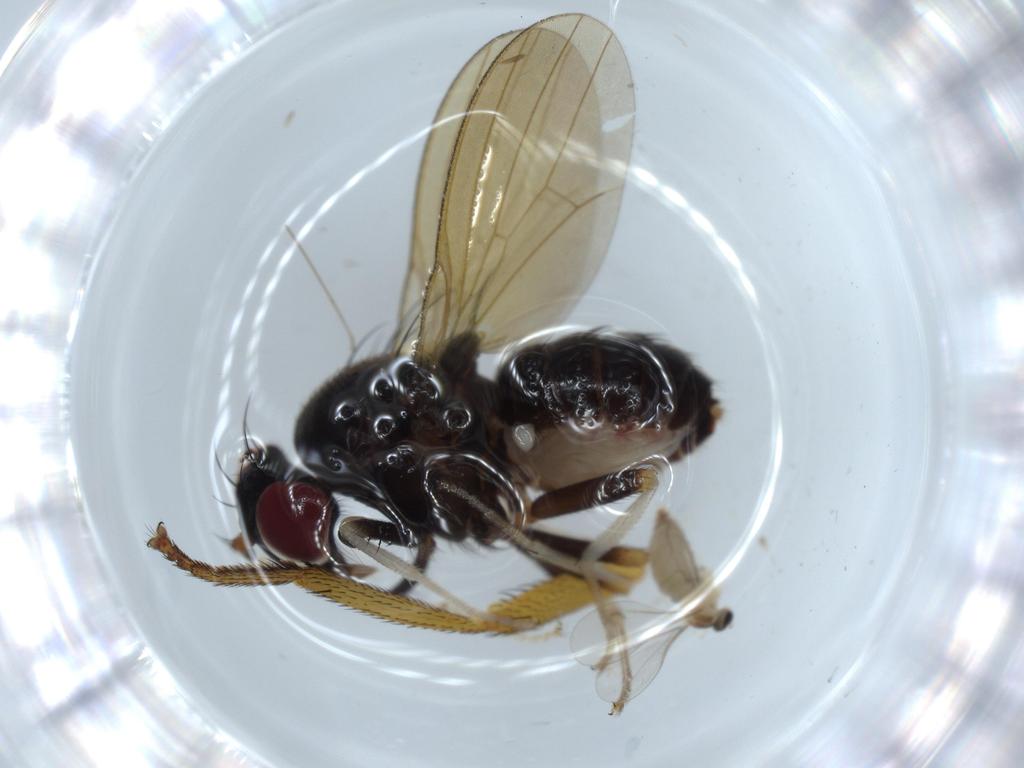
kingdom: Animalia
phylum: Arthropoda
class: Insecta
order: Diptera
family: Lauxaniidae
